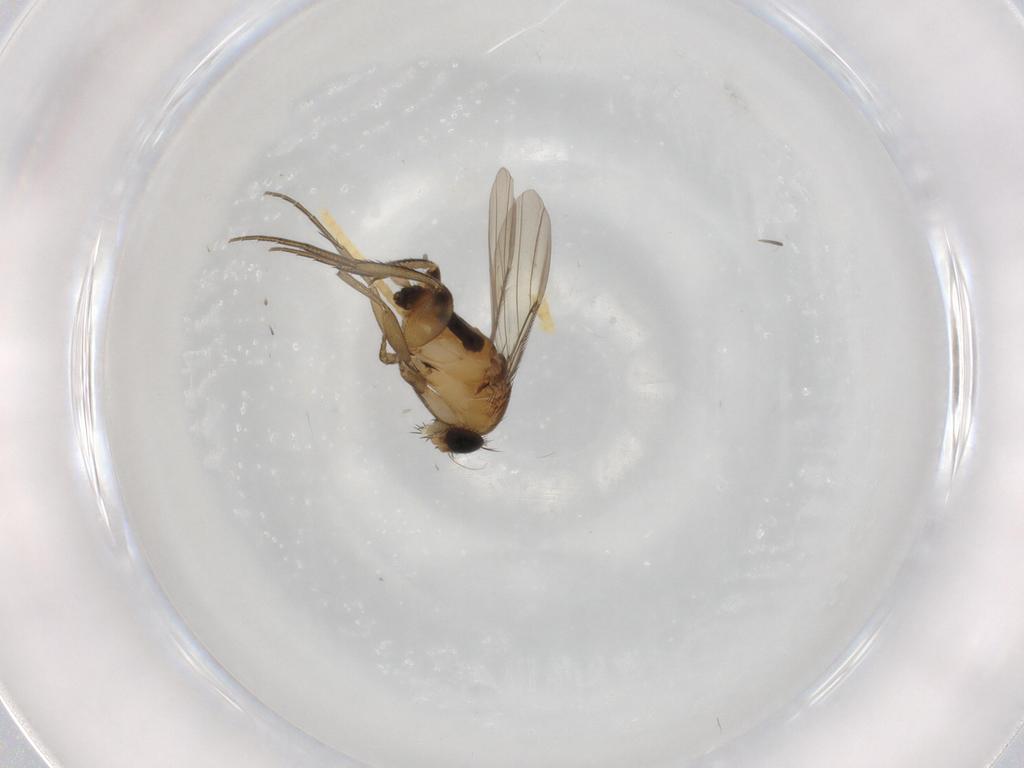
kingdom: Animalia
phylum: Arthropoda
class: Insecta
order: Diptera
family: Phoridae
